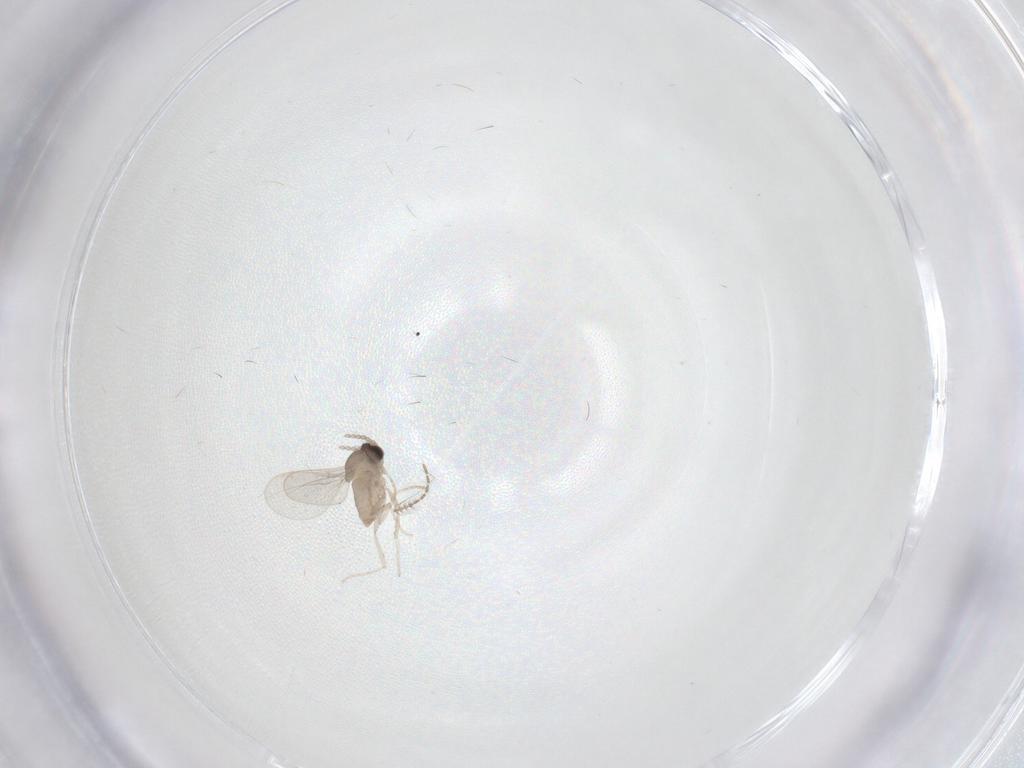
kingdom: Animalia
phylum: Arthropoda
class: Insecta
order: Diptera
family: Ceratopogonidae
